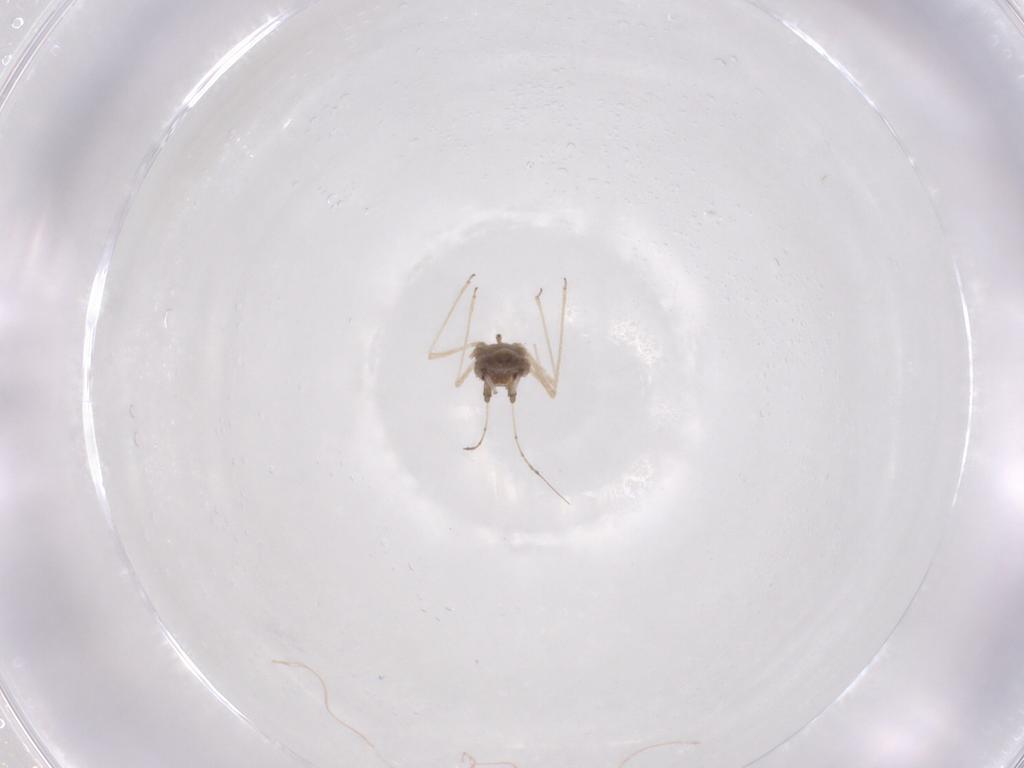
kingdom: Animalia
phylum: Arthropoda
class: Insecta
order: Hemiptera
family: Aphididae
